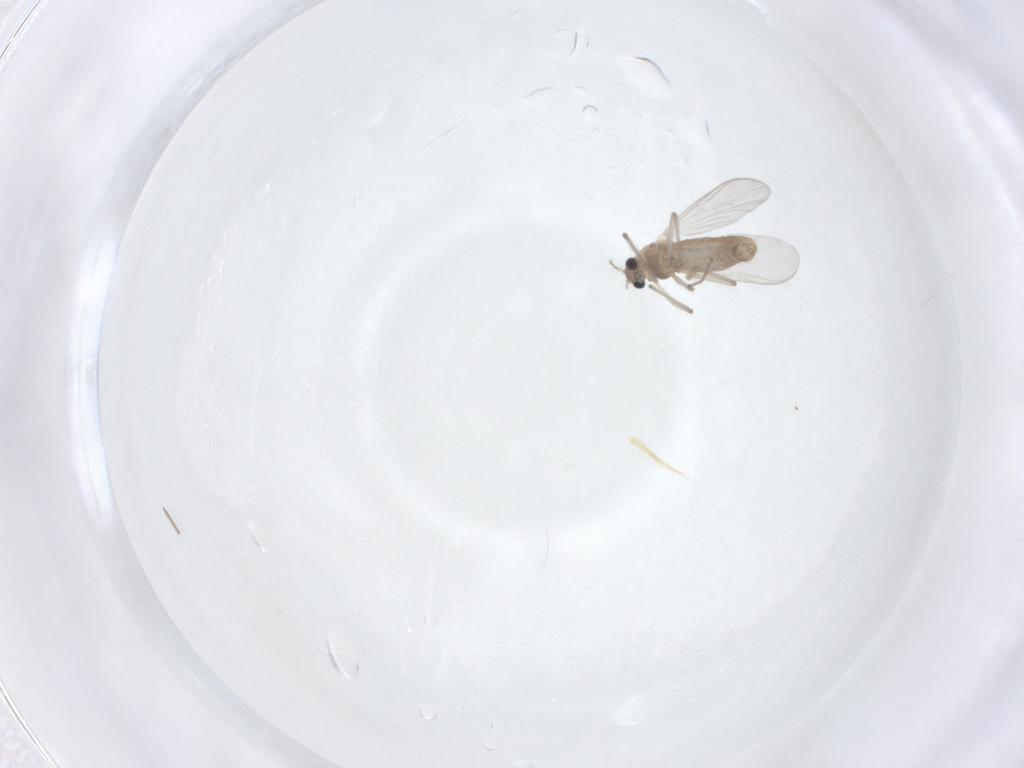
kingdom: Animalia
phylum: Arthropoda
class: Insecta
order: Diptera
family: Chironomidae
